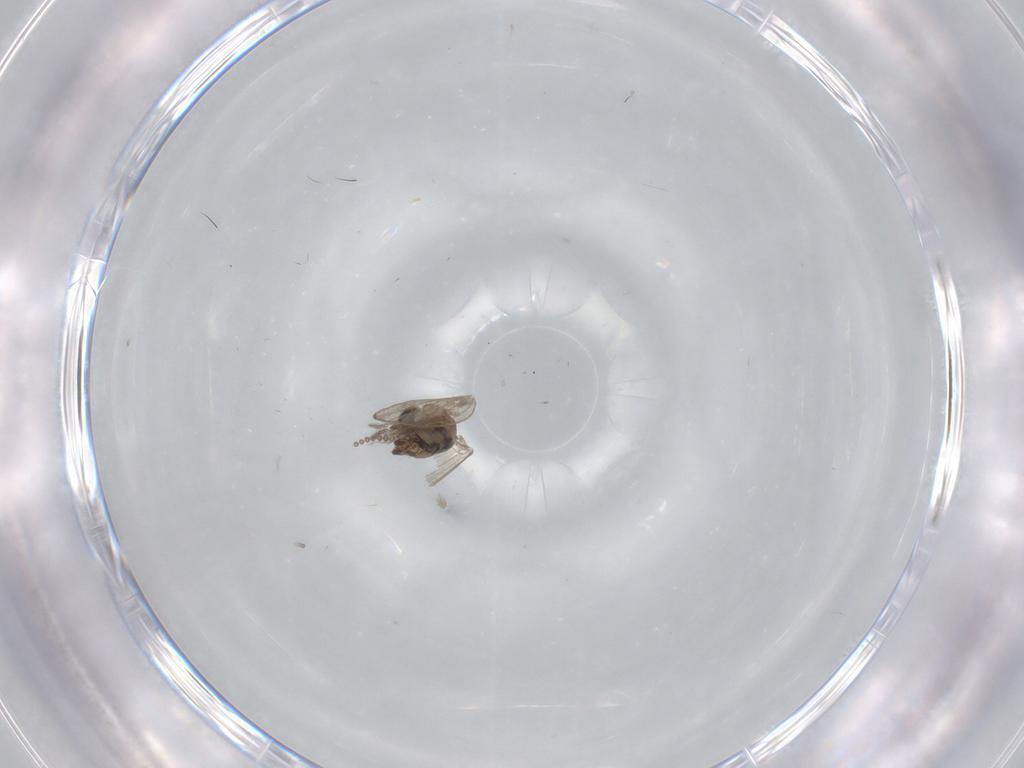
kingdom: Animalia
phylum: Arthropoda
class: Insecta
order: Diptera
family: Psychodidae
